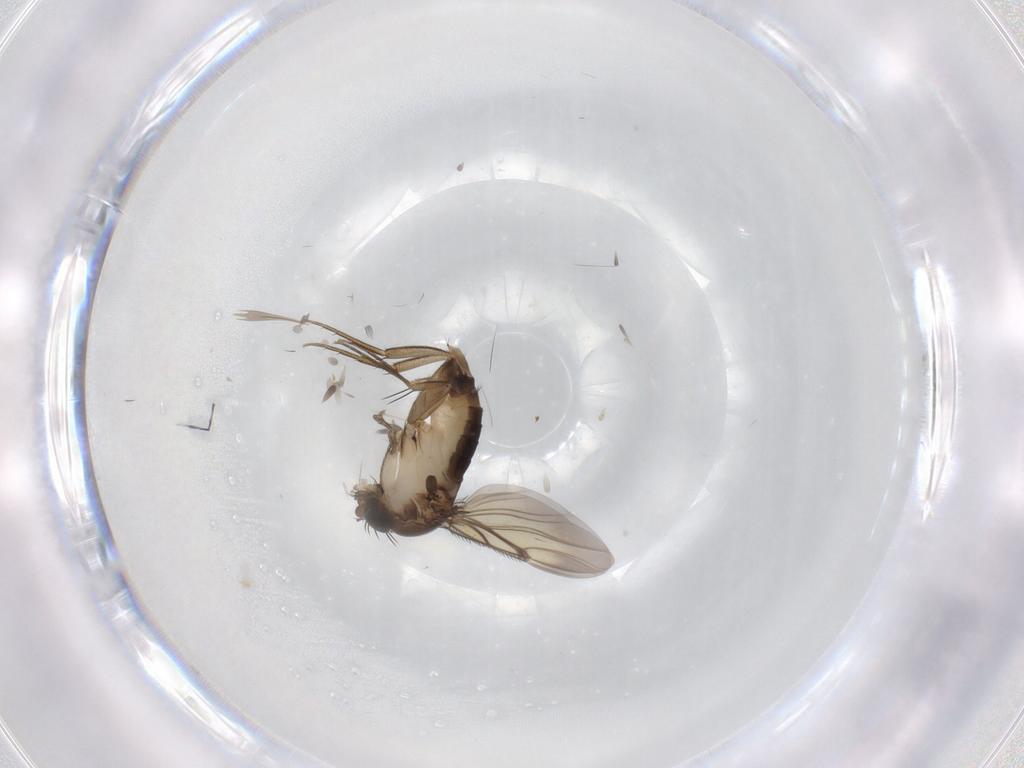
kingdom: Animalia
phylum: Arthropoda
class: Insecta
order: Diptera
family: Phoridae
